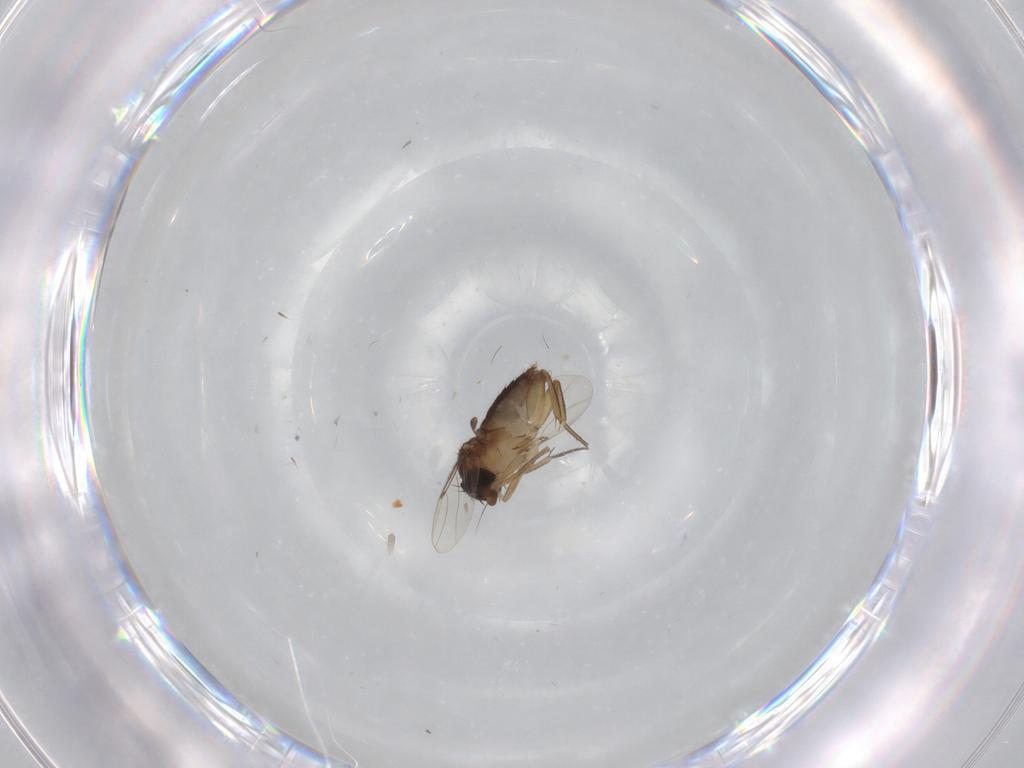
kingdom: Animalia
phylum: Arthropoda
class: Insecta
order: Diptera
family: Phoridae
